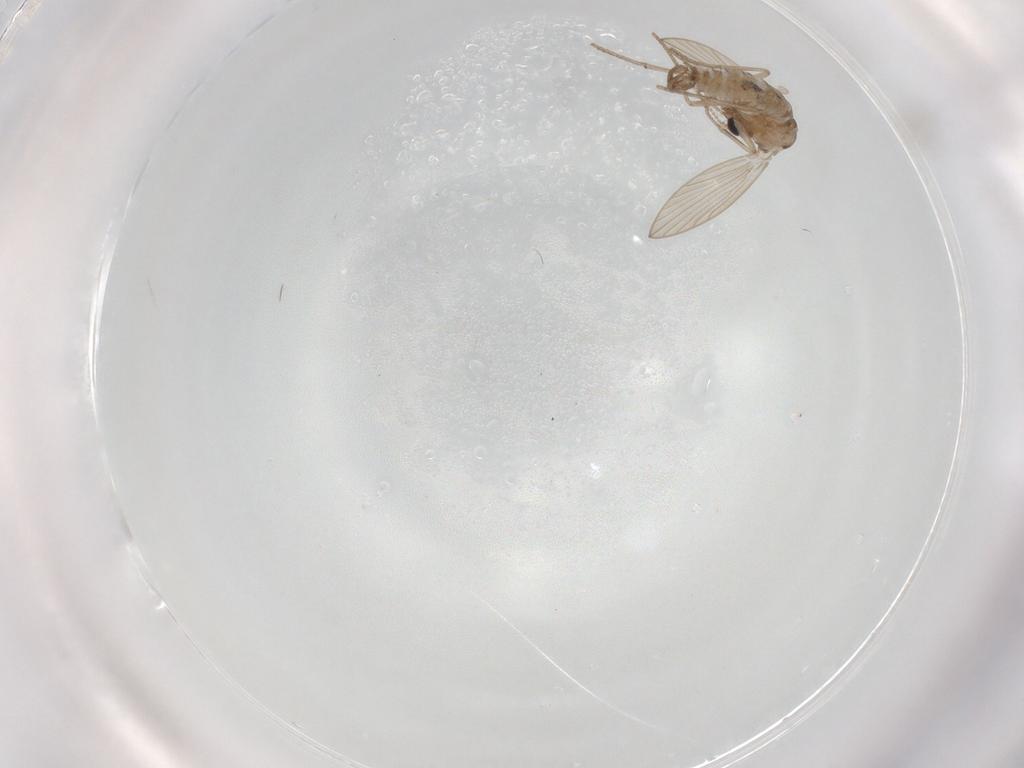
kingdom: Animalia
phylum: Arthropoda
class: Insecta
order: Diptera
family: Psychodidae
